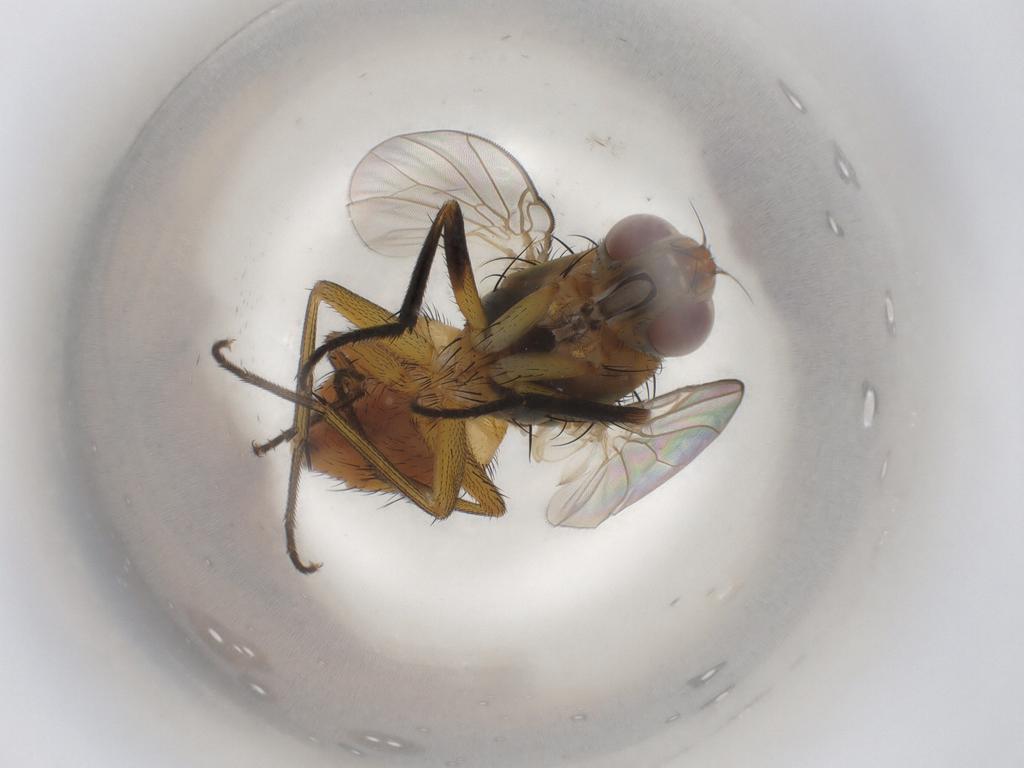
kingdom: Animalia
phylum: Arthropoda
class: Insecta
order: Diptera
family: Muscidae
